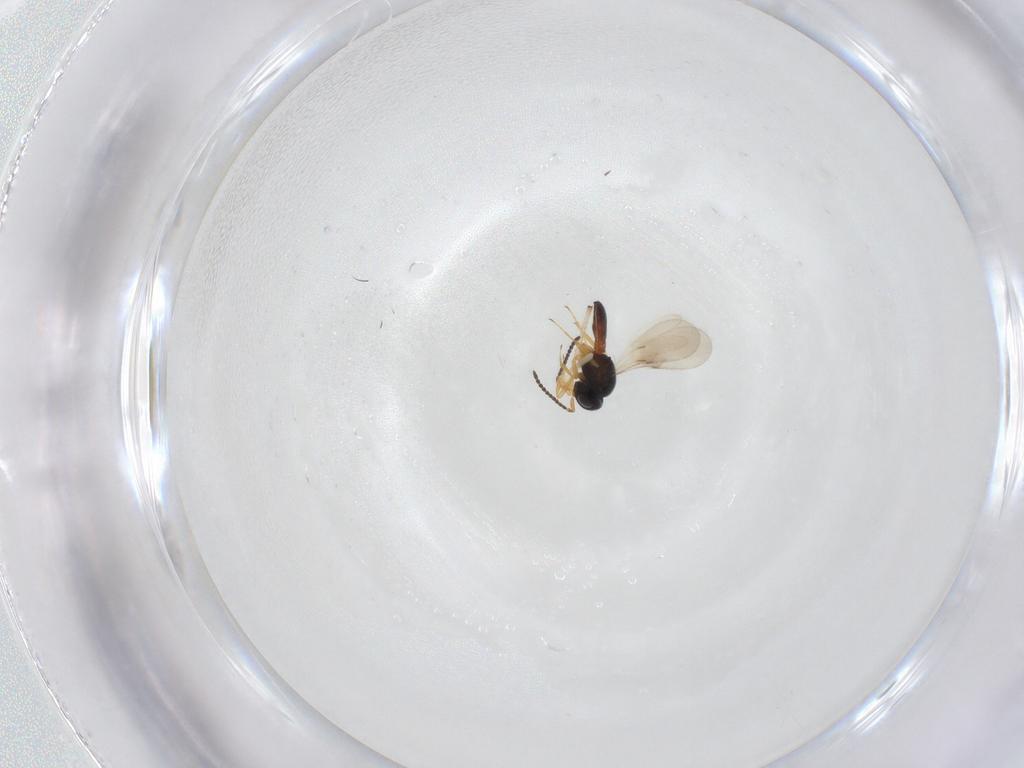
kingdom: Animalia
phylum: Arthropoda
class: Insecta
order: Hymenoptera
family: Scelionidae
